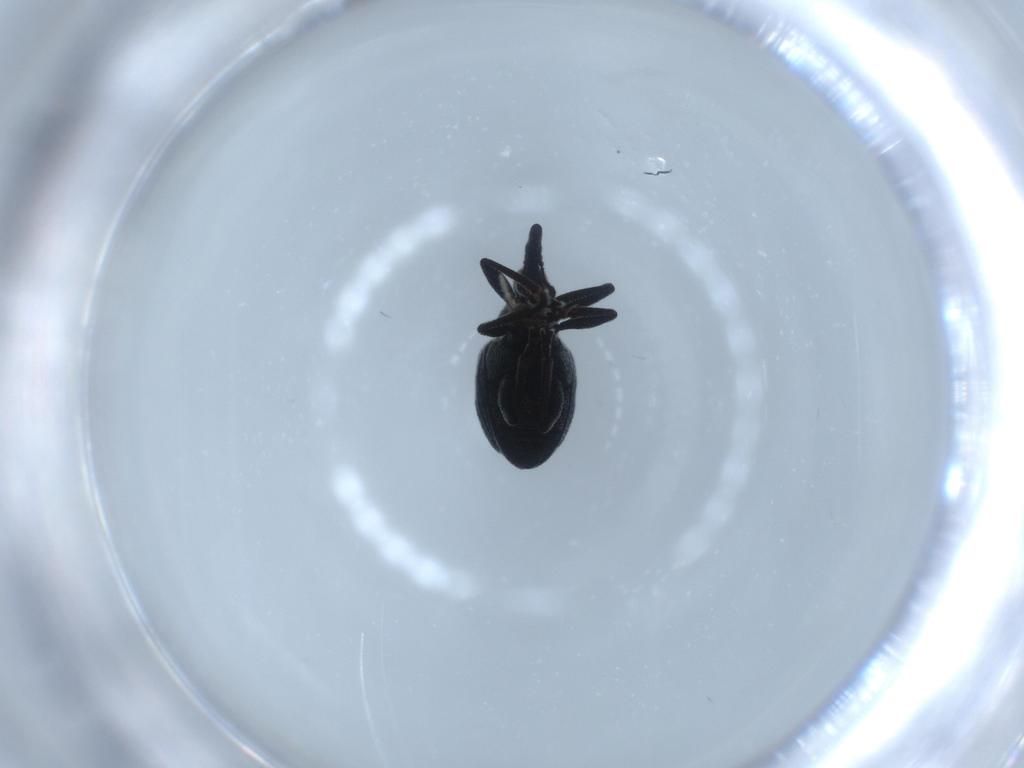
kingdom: Animalia
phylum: Arthropoda
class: Insecta
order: Coleoptera
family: Brentidae
